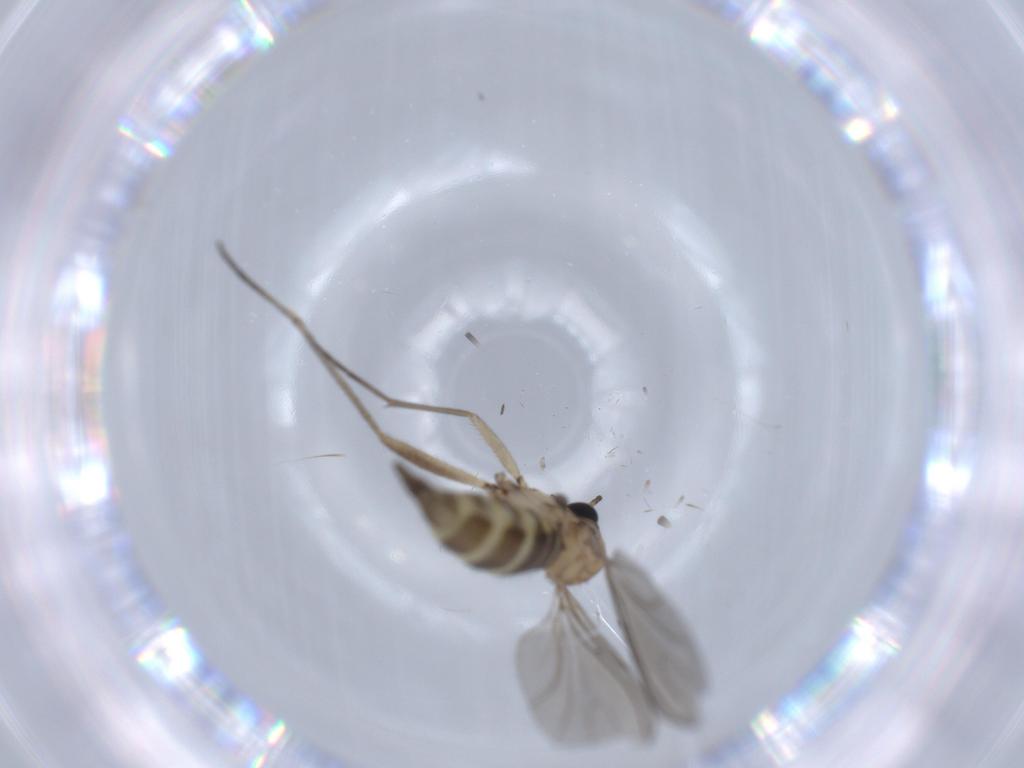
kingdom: Animalia
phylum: Arthropoda
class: Insecta
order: Diptera
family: Sciaridae
